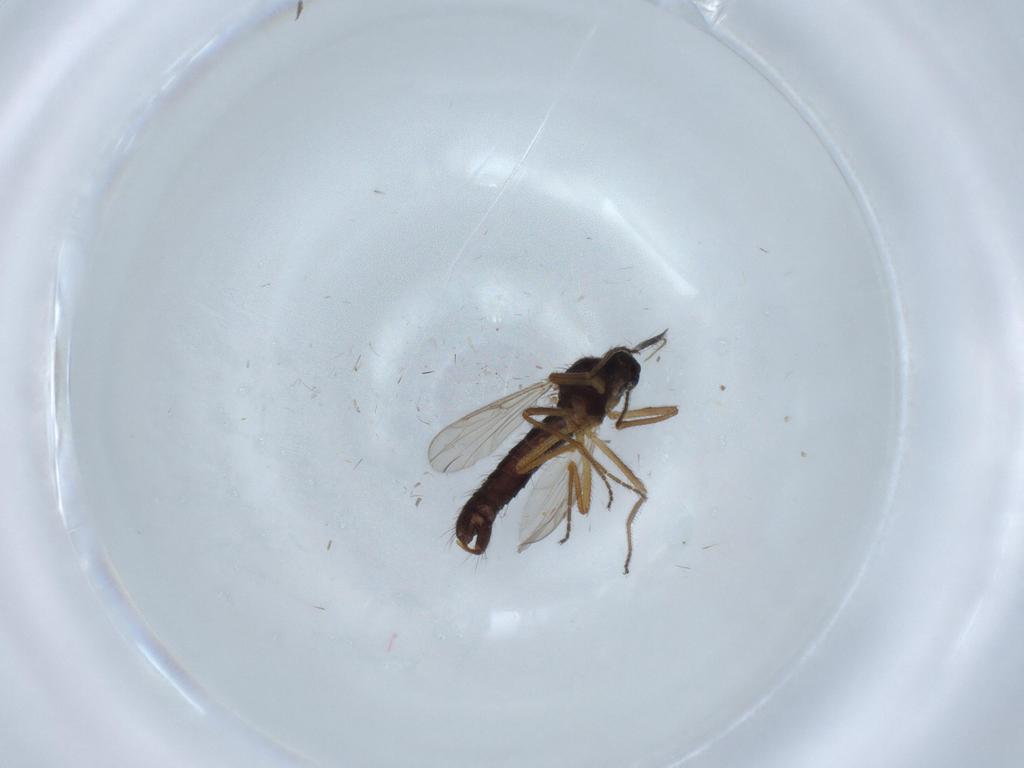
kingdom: Animalia
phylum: Arthropoda
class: Insecta
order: Diptera
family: Ceratopogonidae
